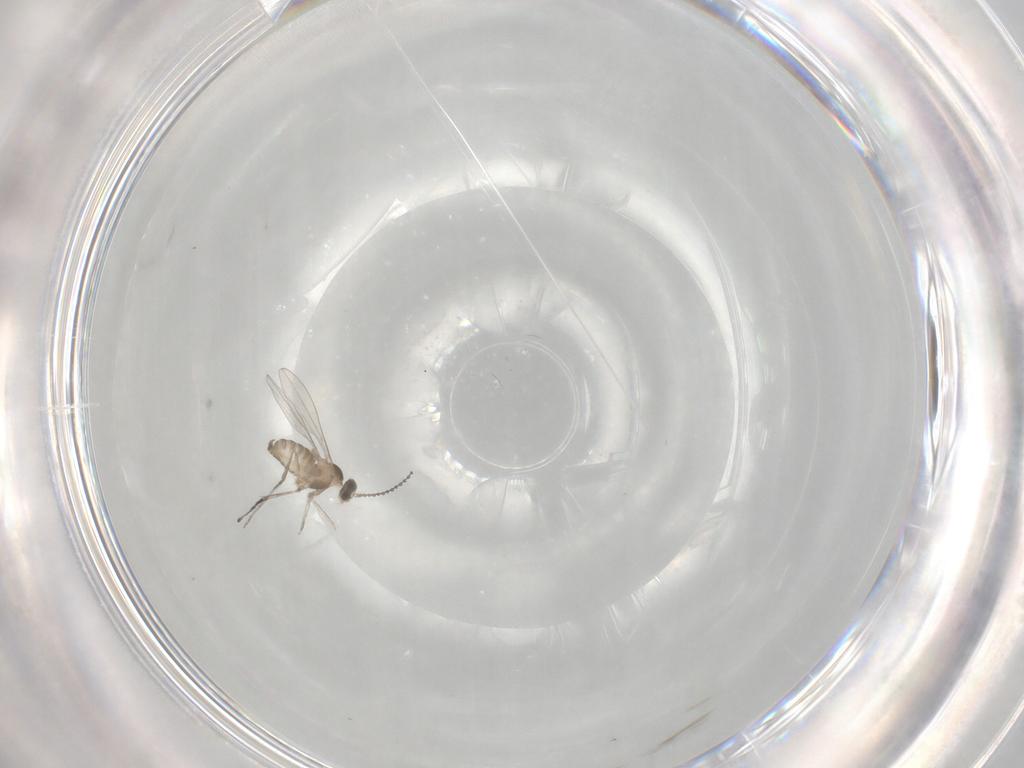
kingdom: Animalia
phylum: Arthropoda
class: Insecta
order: Diptera
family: Cecidomyiidae
